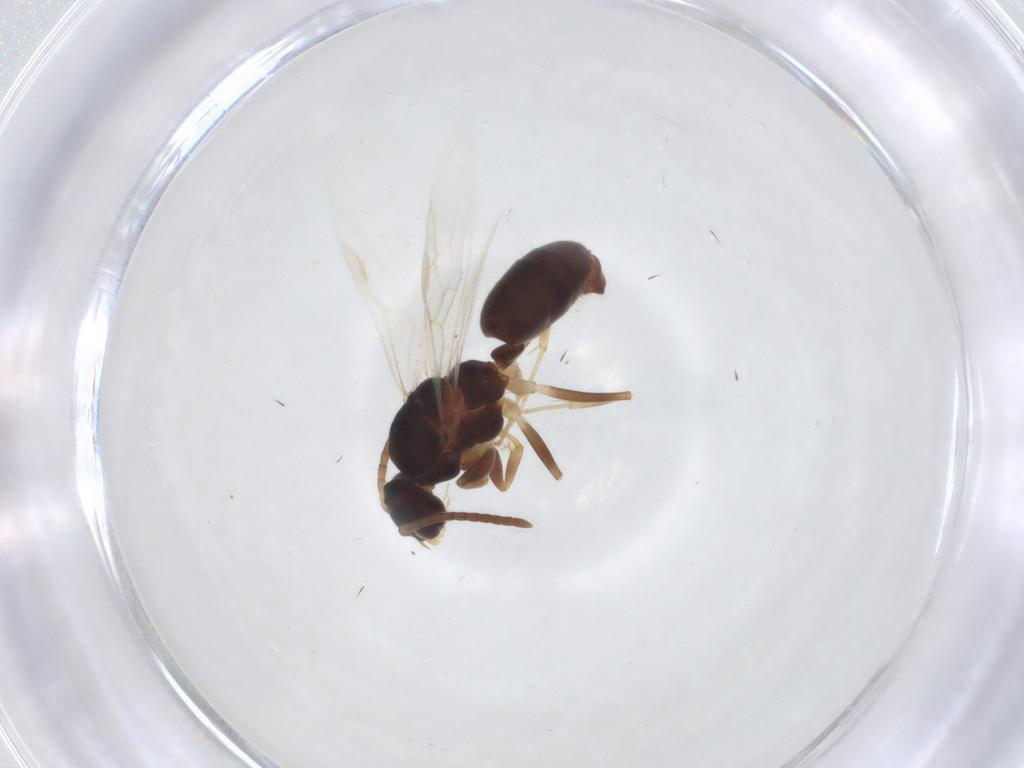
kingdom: Animalia
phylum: Arthropoda
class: Insecta
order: Hymenoptera
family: Formicidae
